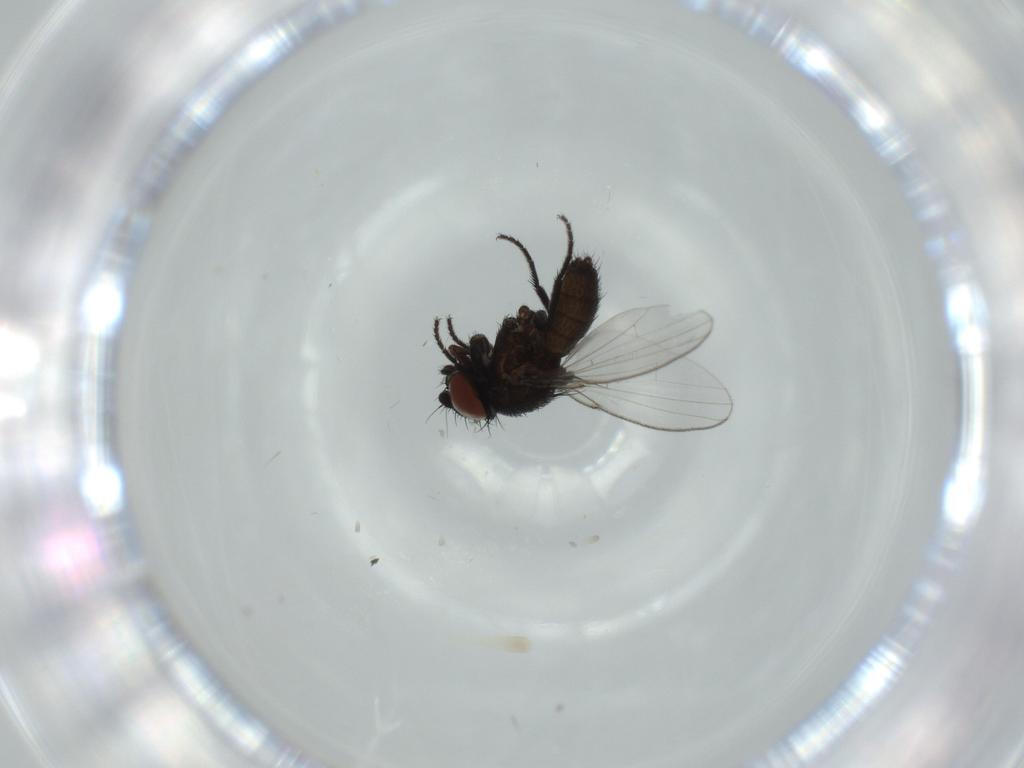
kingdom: Animalia
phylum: Arthropoda
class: Insecta
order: Diptera
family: Milichiidae
